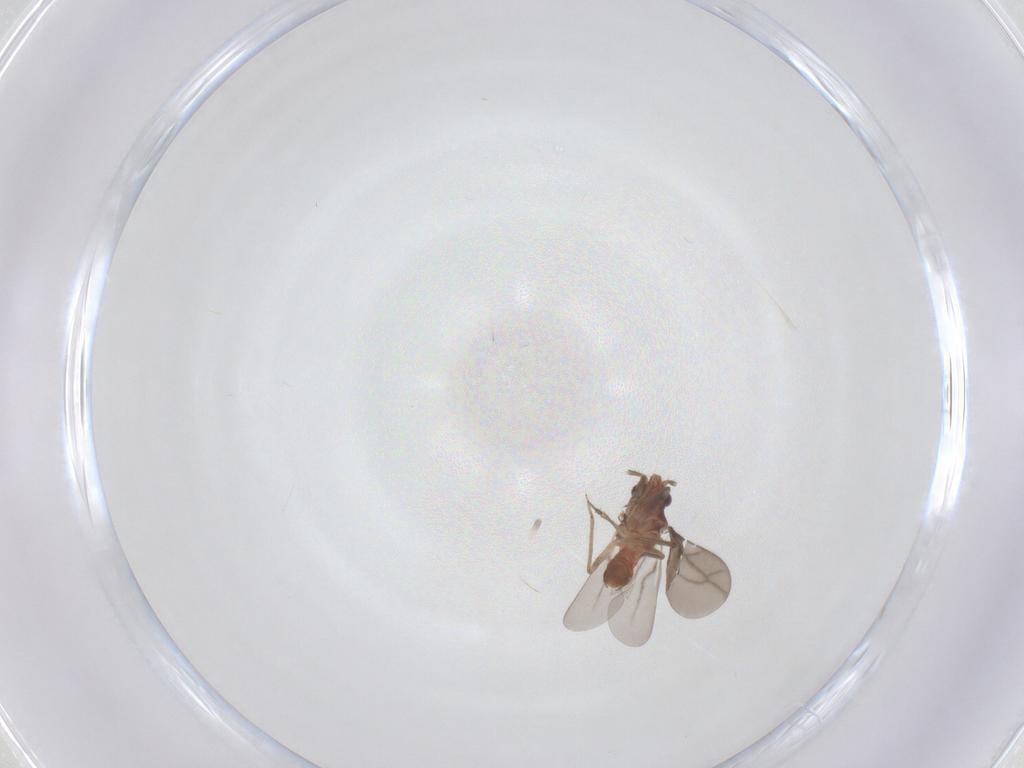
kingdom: Animalia
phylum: Arthropoda
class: Insecta
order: Hemiptera
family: Ceratocombidae
